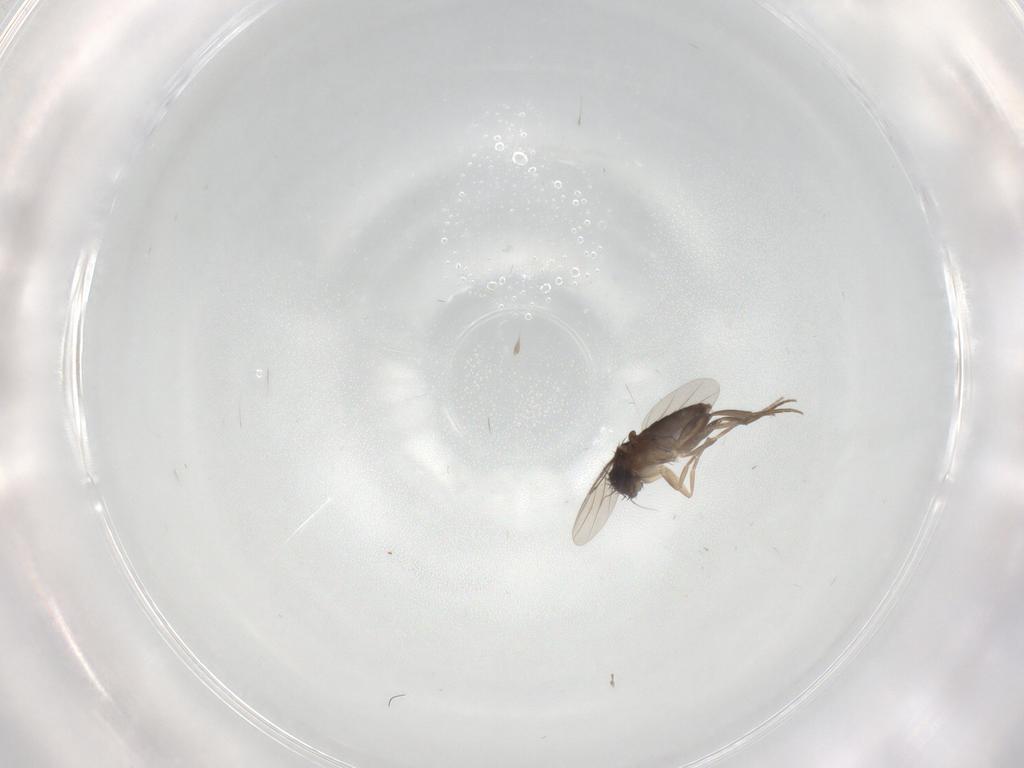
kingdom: Animalia
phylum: Arthropoda
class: Insecta
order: Diptera
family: Phoridae
